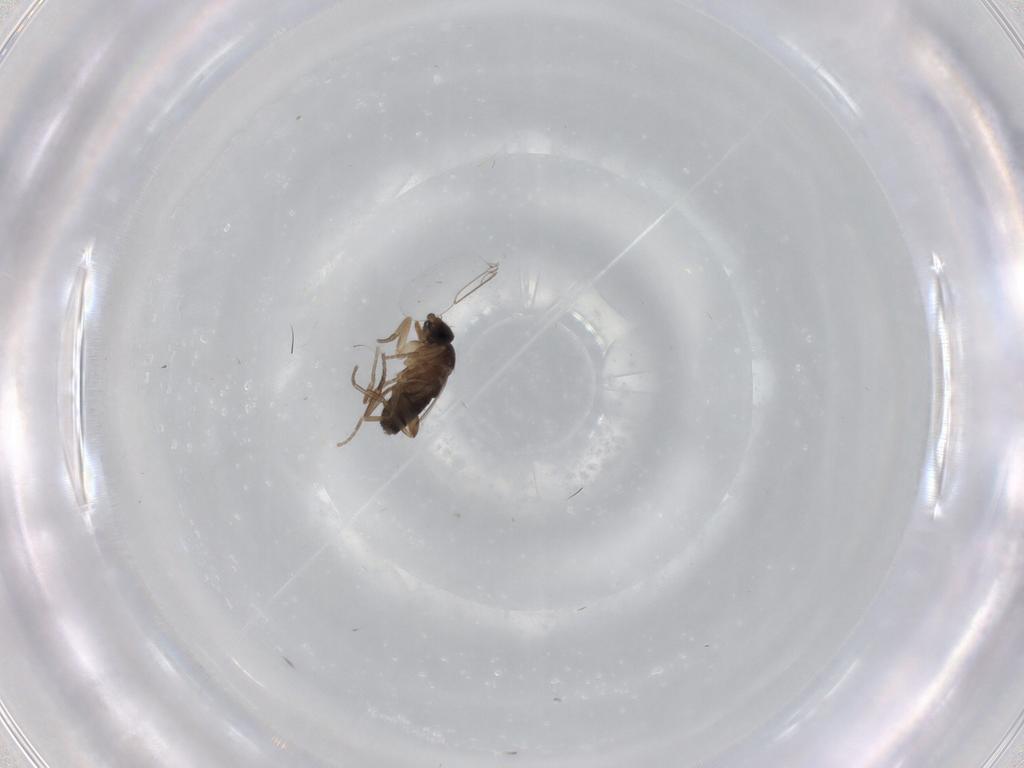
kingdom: Animalia
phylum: Arthropoda
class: Insecta
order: Diptera
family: Phoridae
